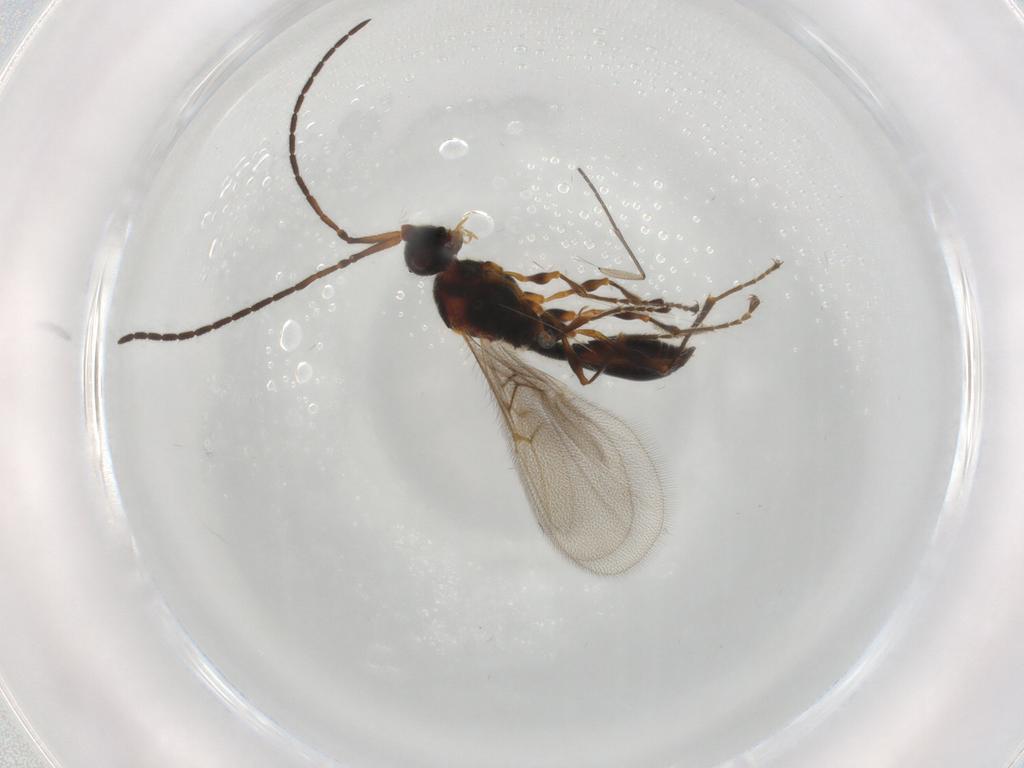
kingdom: Animalia
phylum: Arthropoda
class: Insecta
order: Hymenoptera
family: Diapriidae
